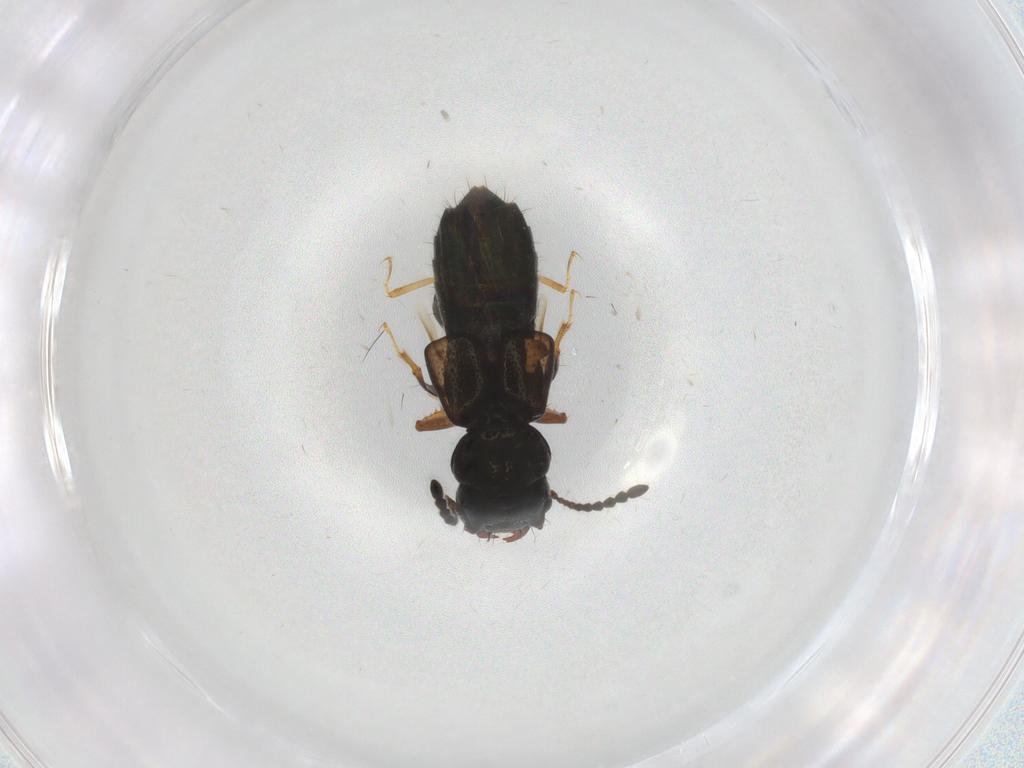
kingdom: Animalia
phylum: Arthropoda
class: Insecta
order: Coleoptera
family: Staphylinidae
